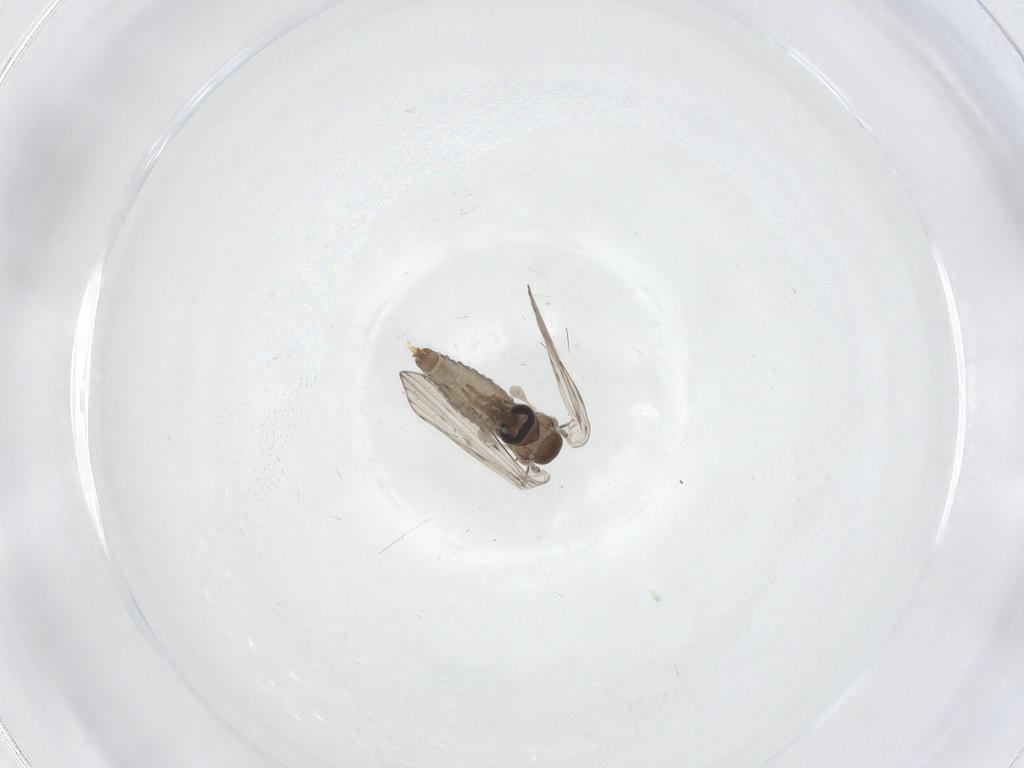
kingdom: Animalia
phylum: Arthropoda
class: Insecta
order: Diptera
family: Psychodidae
